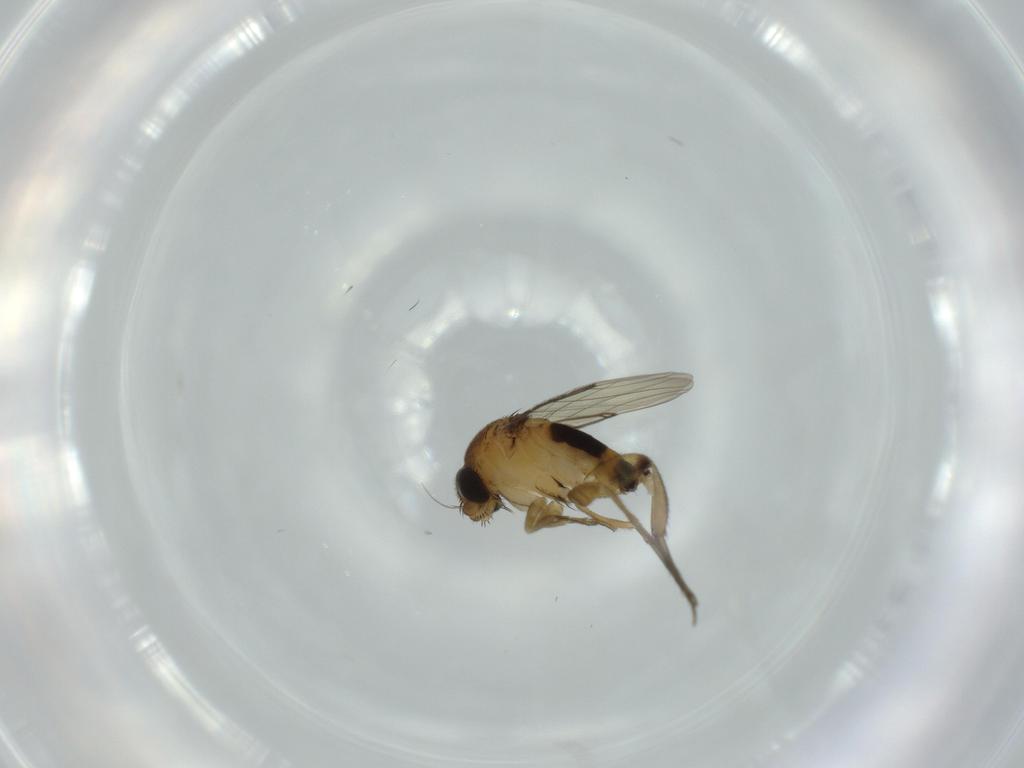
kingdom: Animalia
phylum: Arthropoda
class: Insecta
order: Diptera
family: Phoridae
